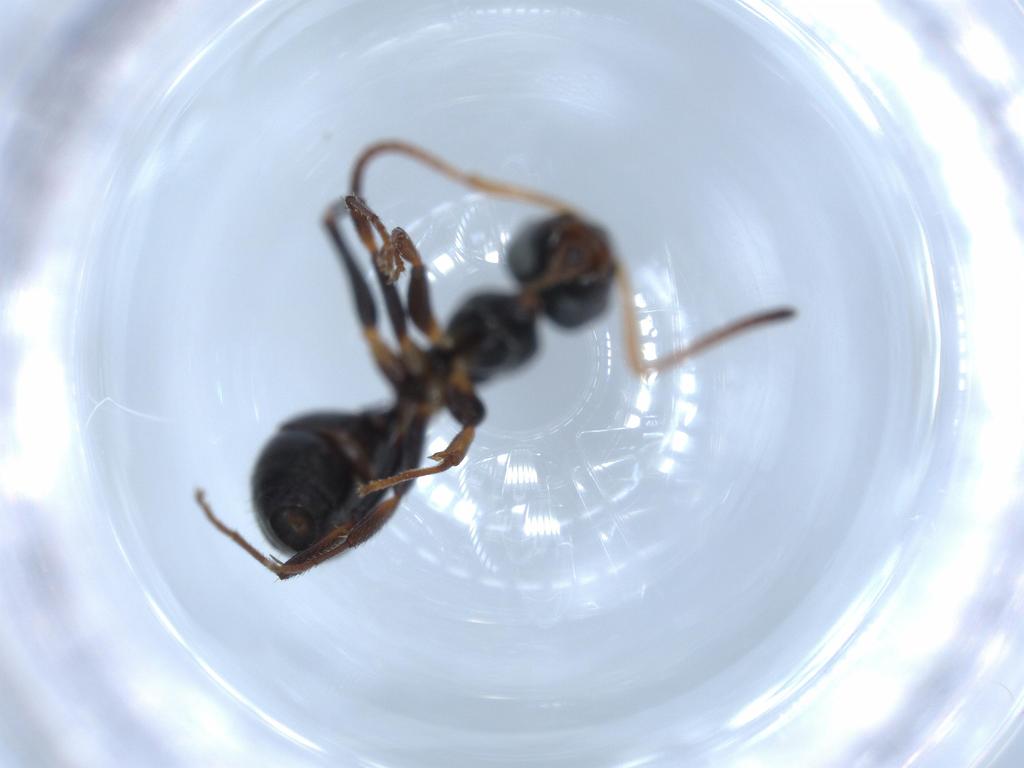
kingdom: Animalia
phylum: Arthropoda
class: Insecta
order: Hymenoptera
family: Formicidae
